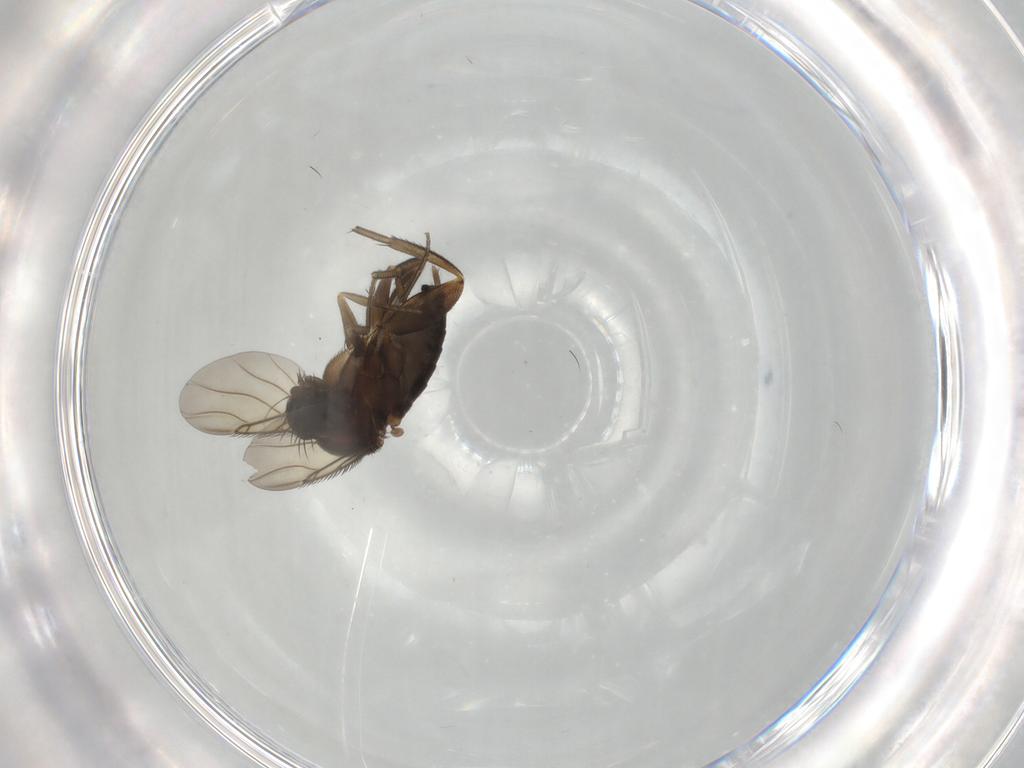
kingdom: Animalia
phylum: Arthropoda
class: Insecta
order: Diptera
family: Phoridae
